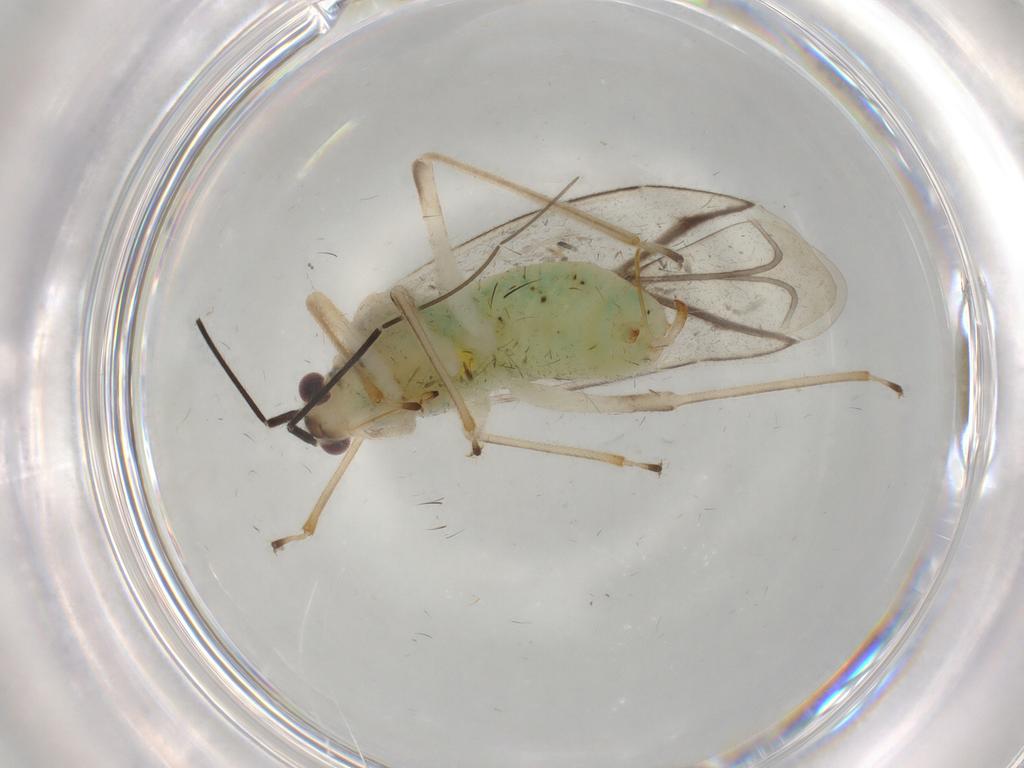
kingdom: Animalia
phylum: Arthropoda
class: Insecta
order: Hemiptera
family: Miridae
